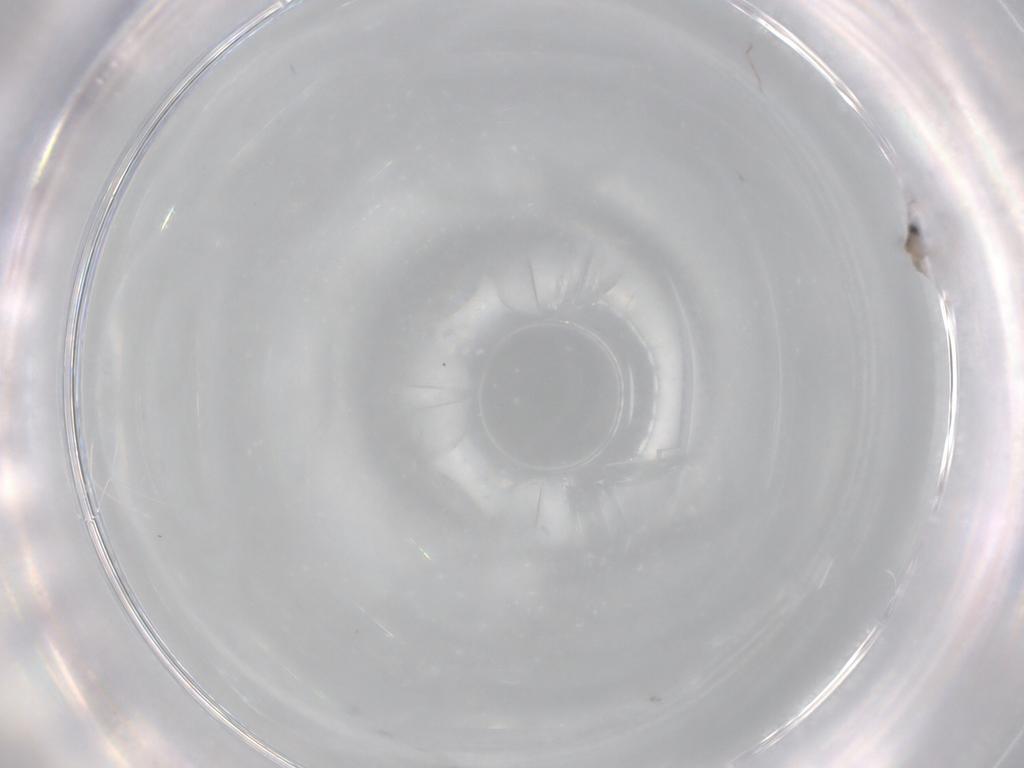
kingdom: Animalia
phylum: Arthropoda
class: Insecta
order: Diptera
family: Cecidomyiidae
